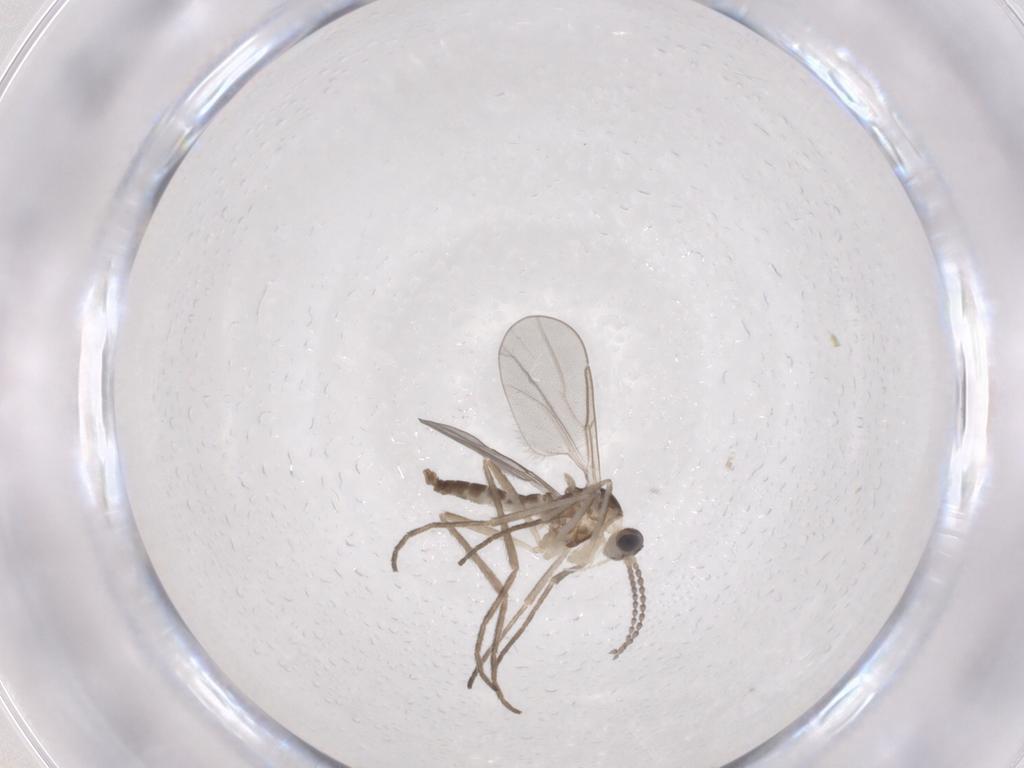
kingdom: Animalia
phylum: Arthropoda
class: Insecta
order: Diptera
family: Cecidomyiidae
